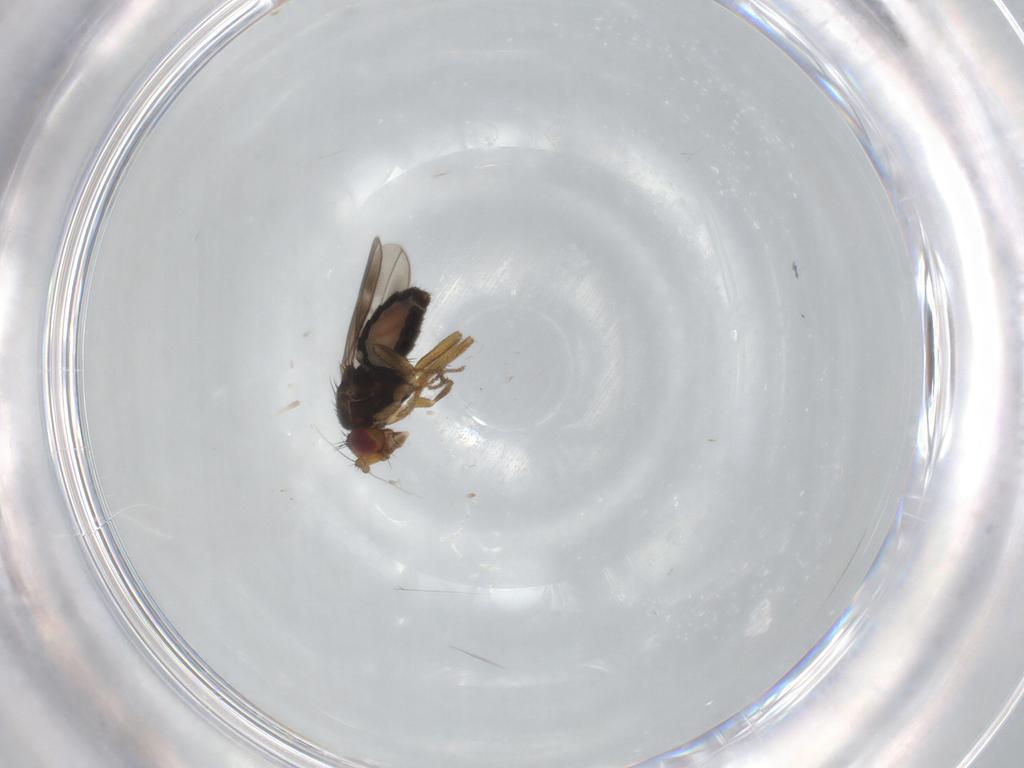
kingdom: Animalia
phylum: Arthropoda
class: Insecta
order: Diptera
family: Sphaeroceridae
